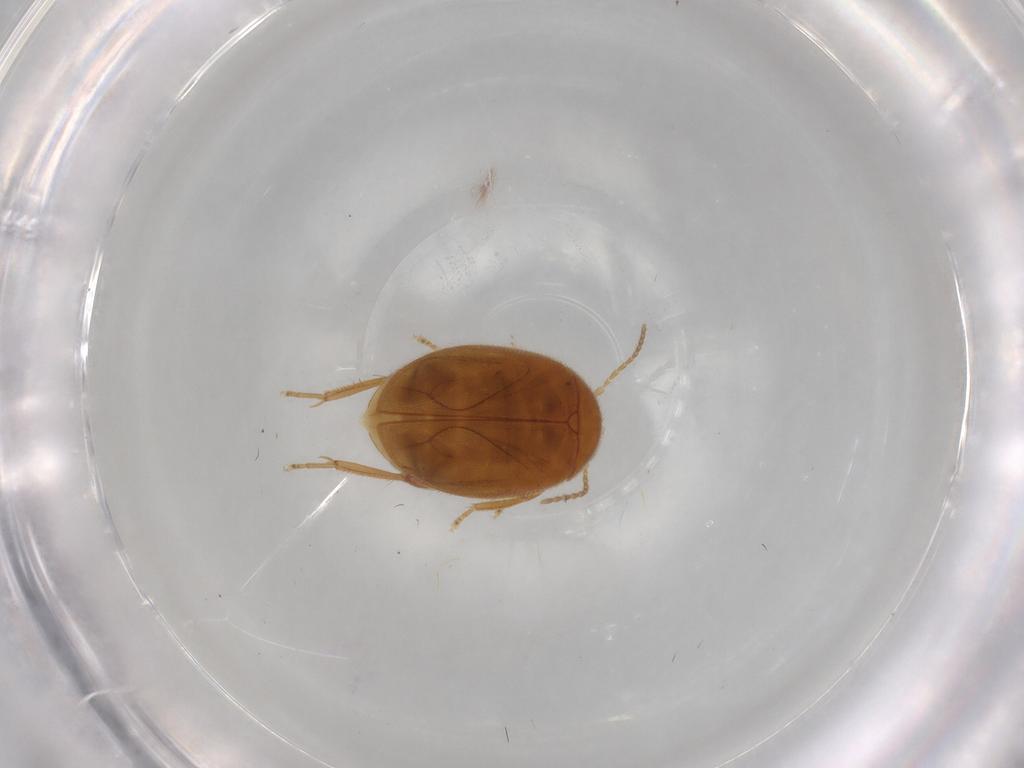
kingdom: Animalia
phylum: Arthropoda
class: Insecta
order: Coleoptera
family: Scirtidae
